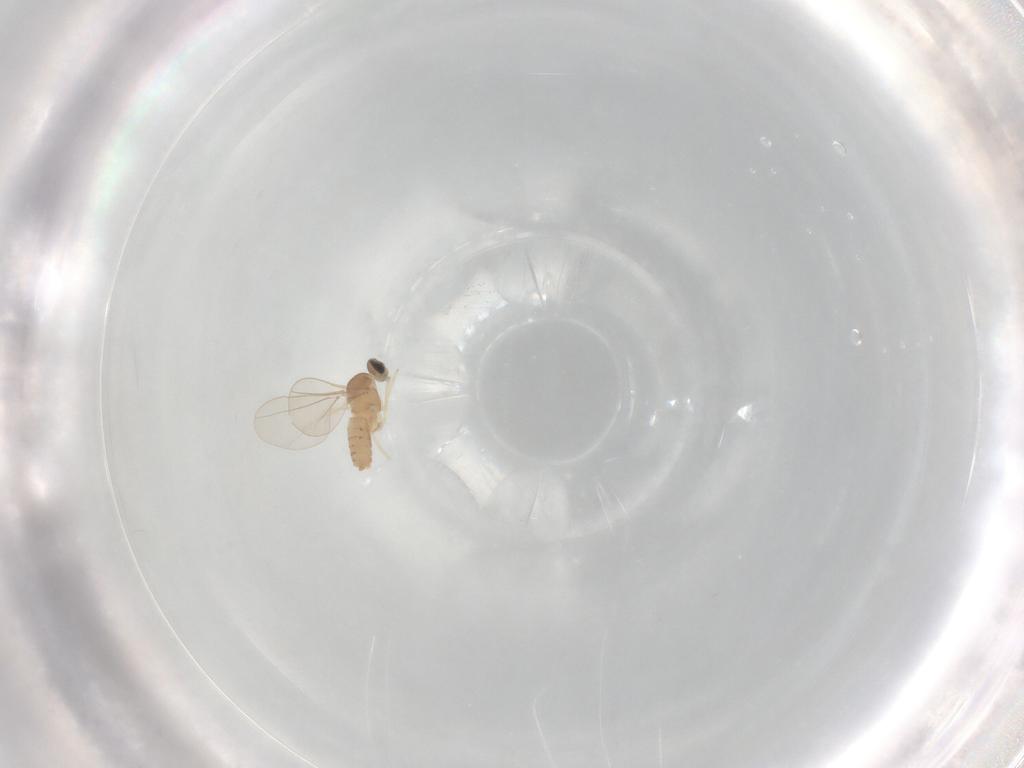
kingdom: Animalia
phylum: Arthropoda
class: Insecta
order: Diptera
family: Cecidomyiidae
